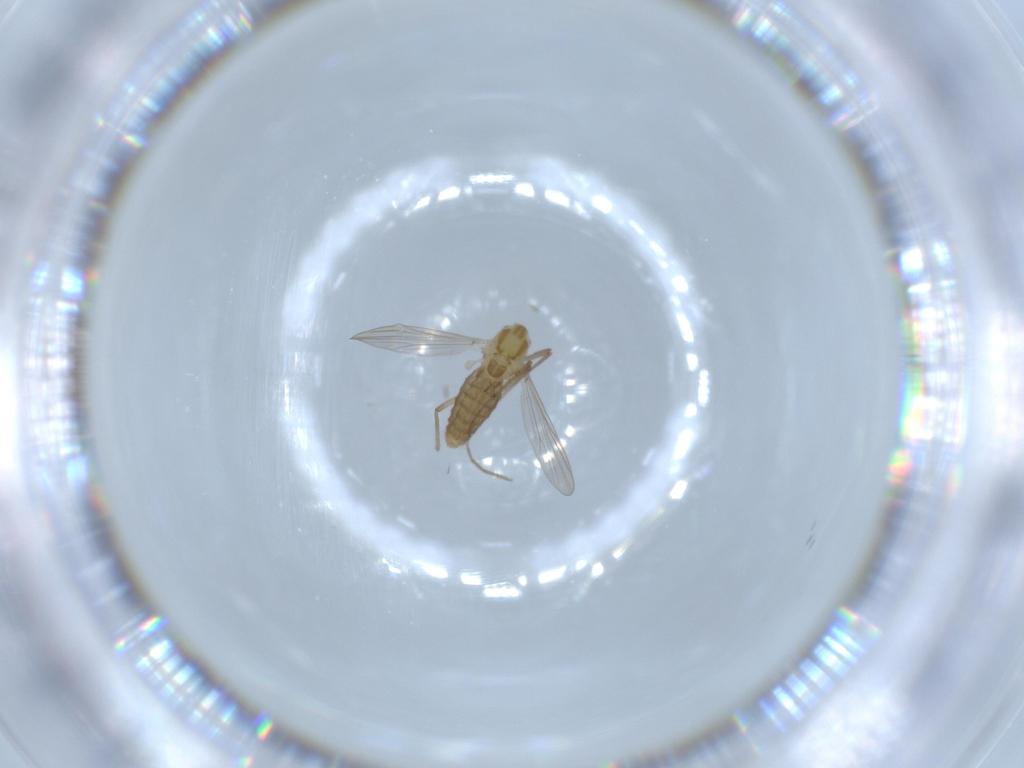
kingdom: Animalia
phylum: Arthropoda
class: Insecta
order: Diptera
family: Chironomidae
